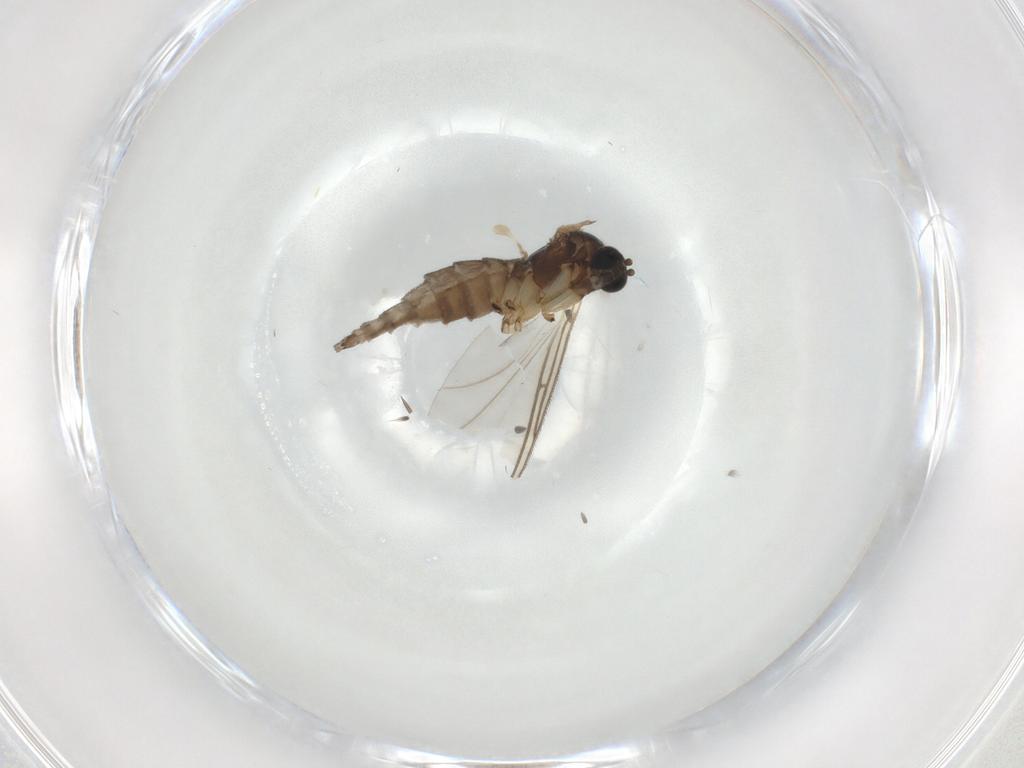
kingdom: Animalia
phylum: Arthropoda
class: Insecta
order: Diptera
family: Sciaridae
